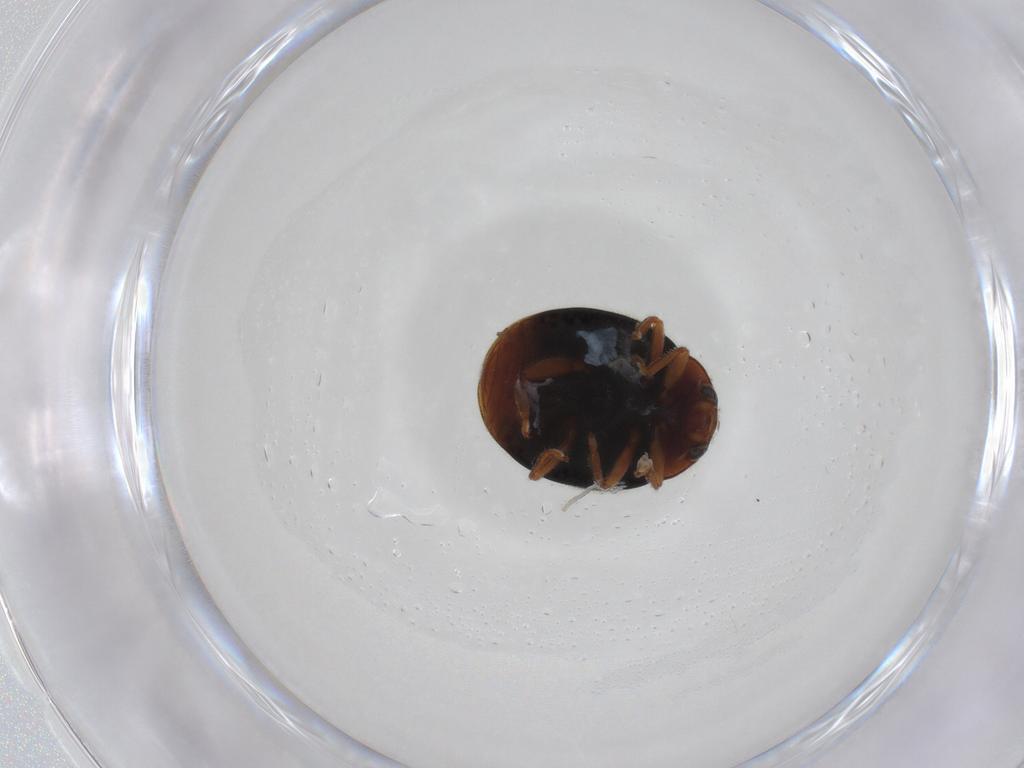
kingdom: Animalia
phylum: Arthropoda
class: Insecta
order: Coleoptera
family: Coccinellidae
